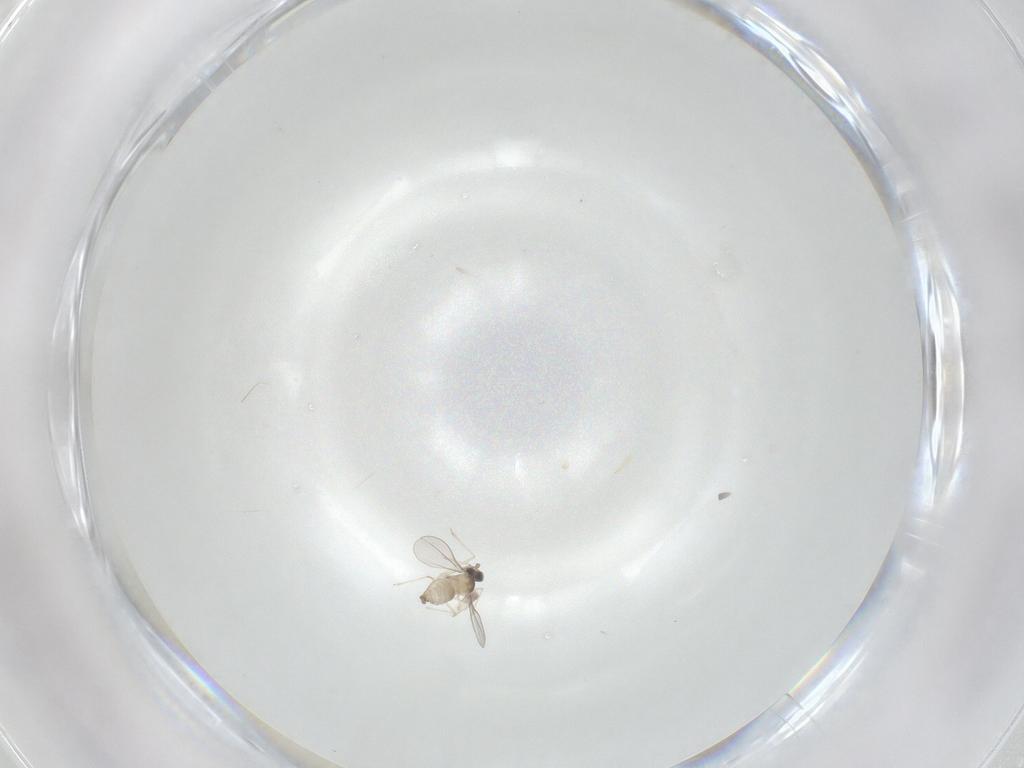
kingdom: Animalia
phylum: Arthropoda
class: Insecta
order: Diptera
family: Cecidomyiidae
